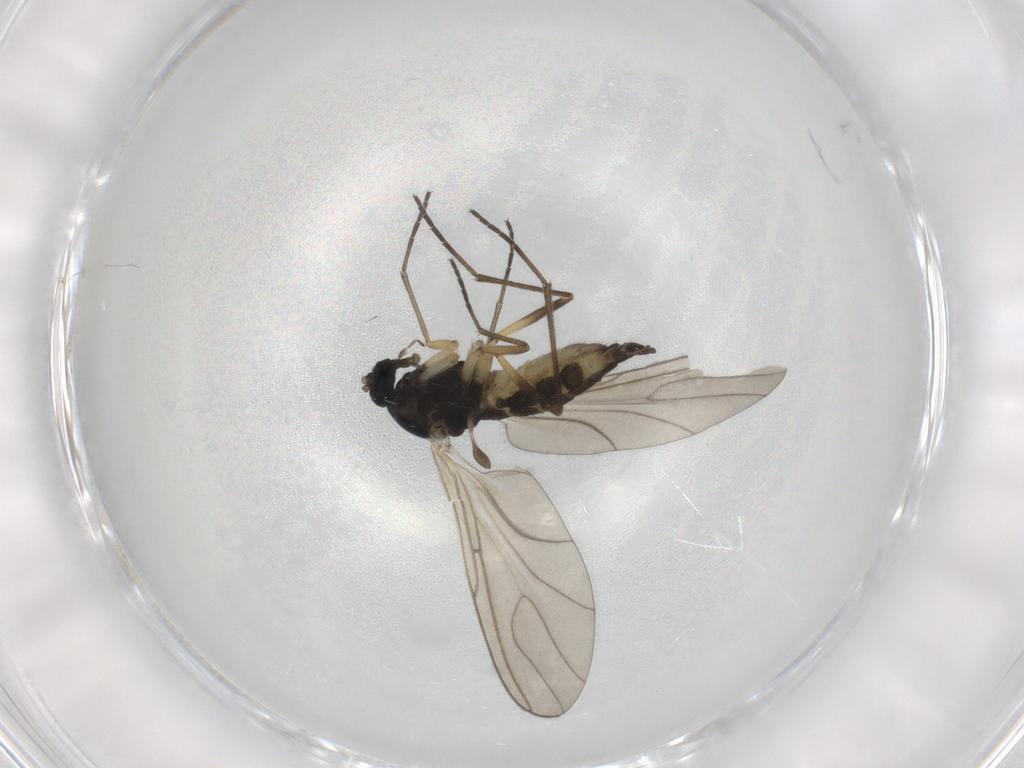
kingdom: Animalia
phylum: Arthropoda
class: Insecta
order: Diptera
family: Sciaridae
